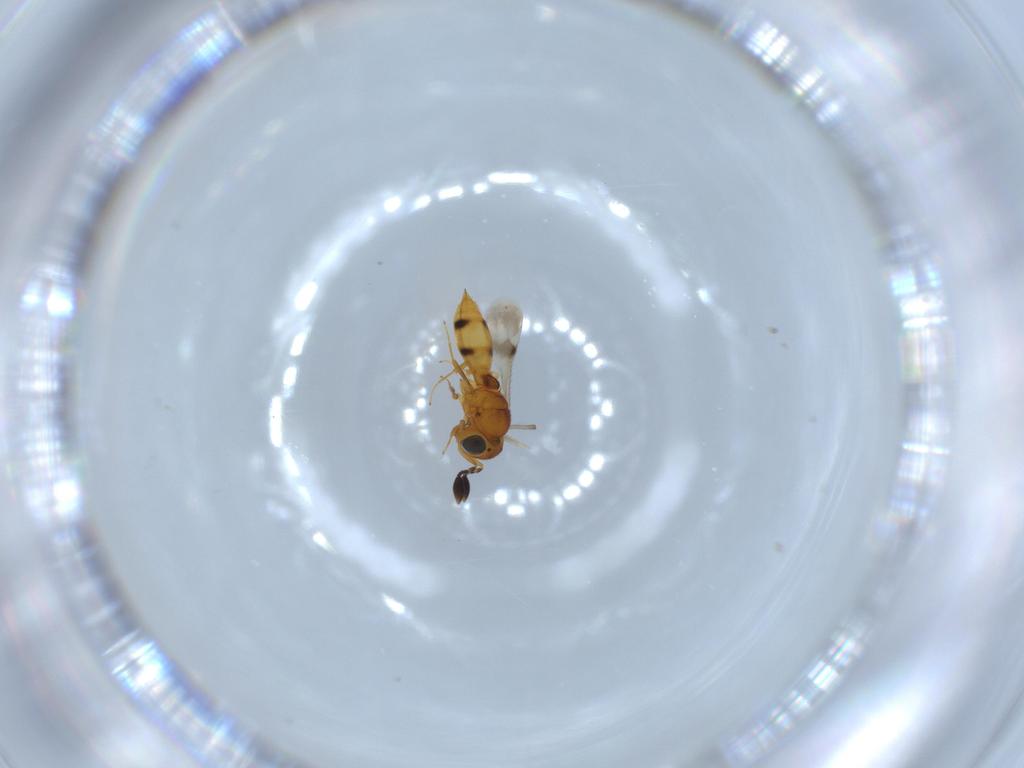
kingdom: Animalia
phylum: Arthropoda
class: Insecta
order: Hymenoptera
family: Scelionidae
